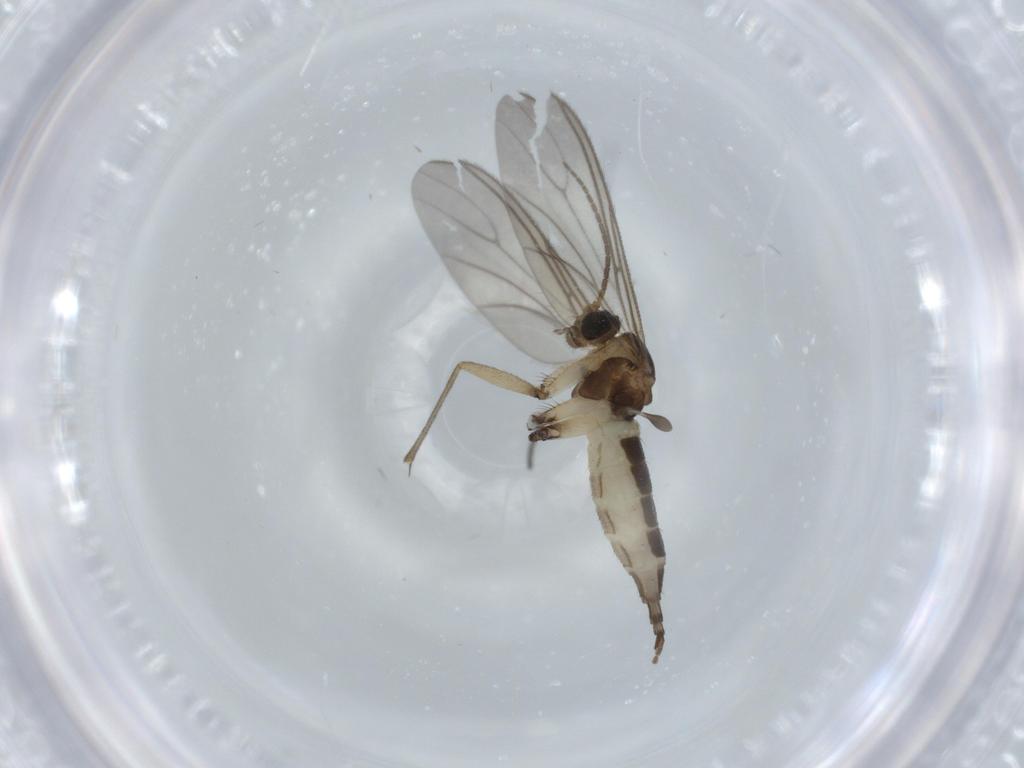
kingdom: Animalia
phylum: Arthropoda
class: Insecta
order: Diptera
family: Sciaridae
